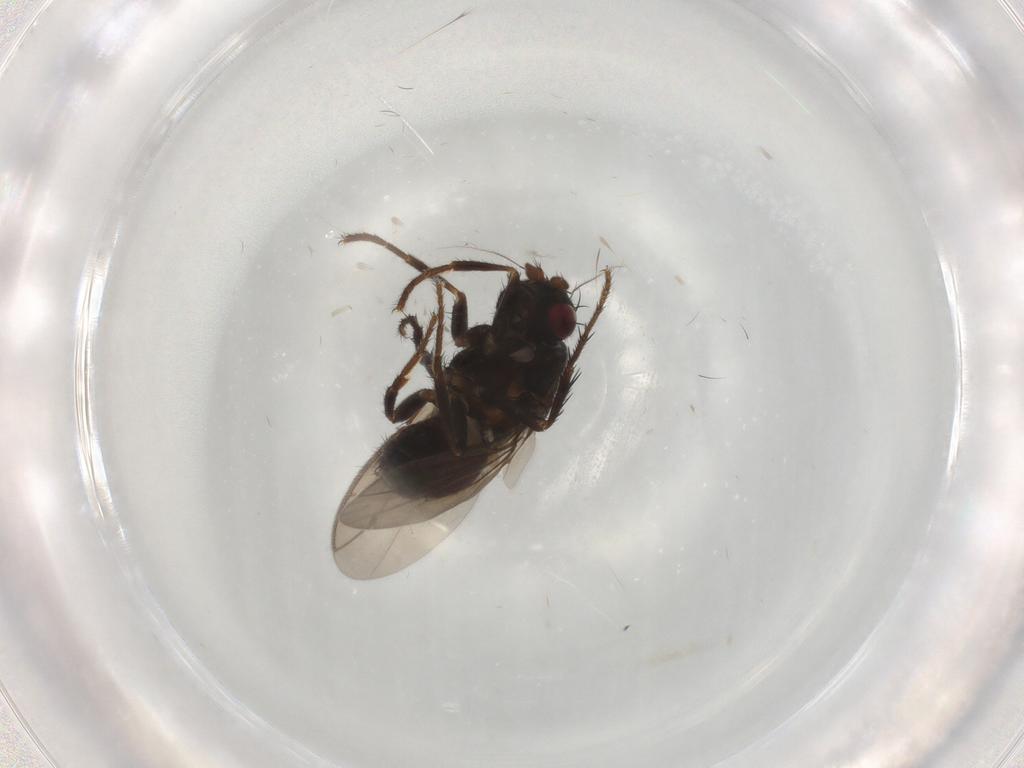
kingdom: Animalia
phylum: Arthropoda
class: Insecta
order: Diptera
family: Sphaeroceridae
